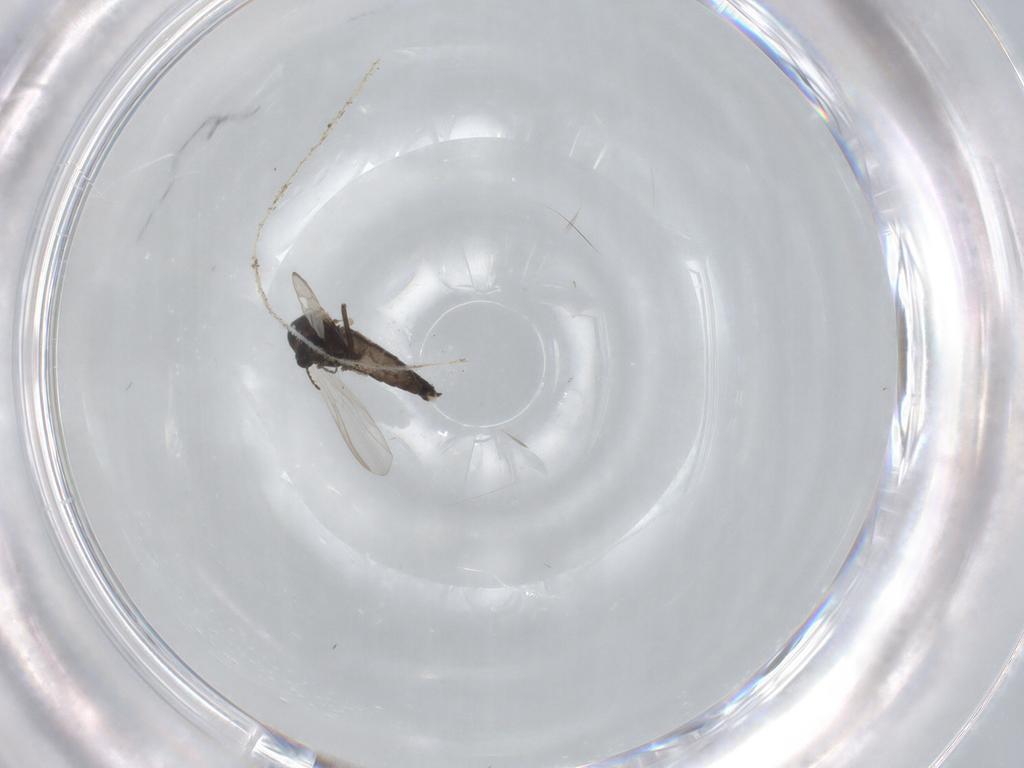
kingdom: Animalia
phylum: Arthropoda
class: Insecta
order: Diptera
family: Chironomidae
